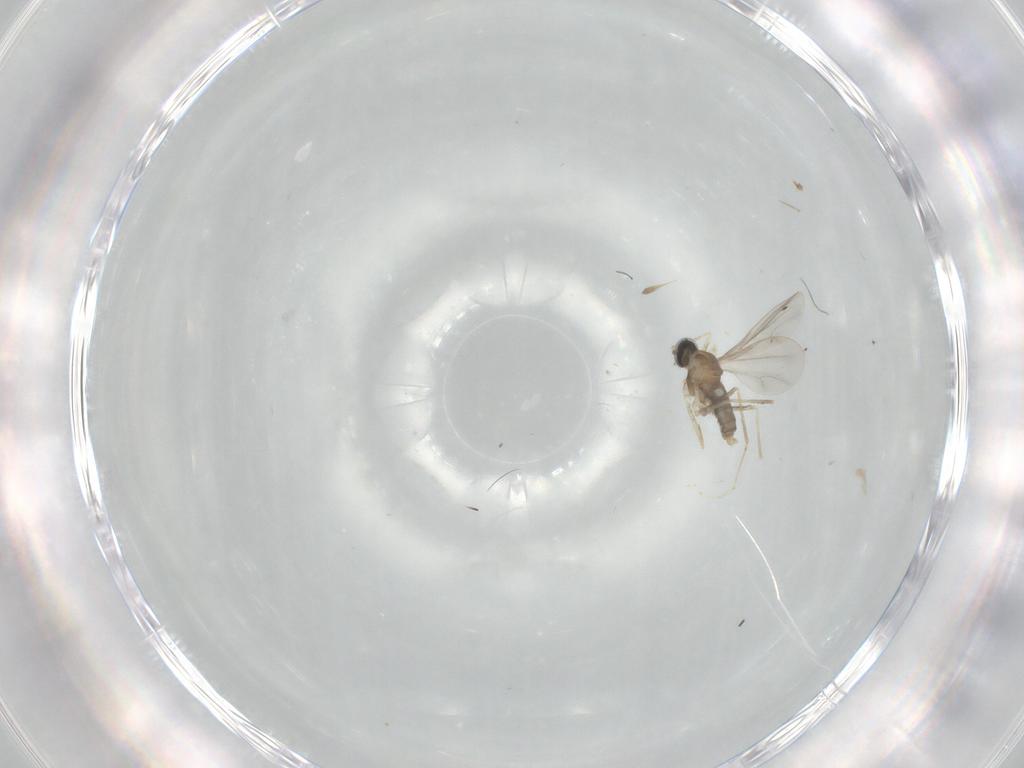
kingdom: Animalia
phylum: Arthropoda
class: Insecta
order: Diptera
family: Cecidomyiidae
